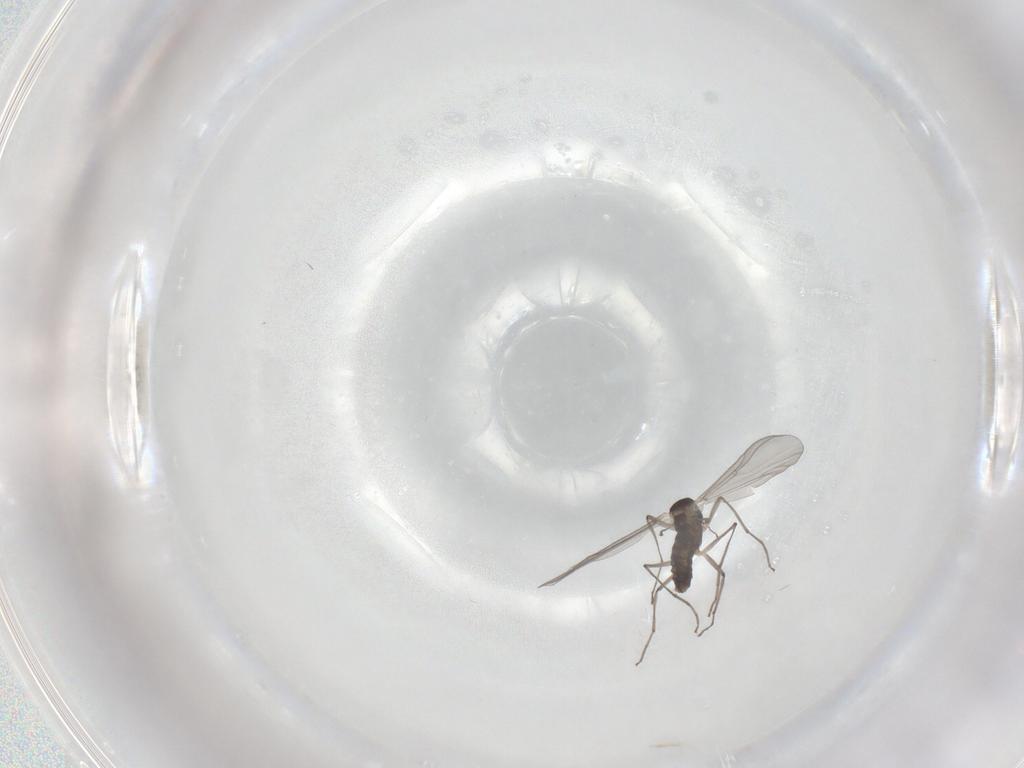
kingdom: Animalia
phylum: Arthropoda
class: Insecta
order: Diptera
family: Chironomidae
